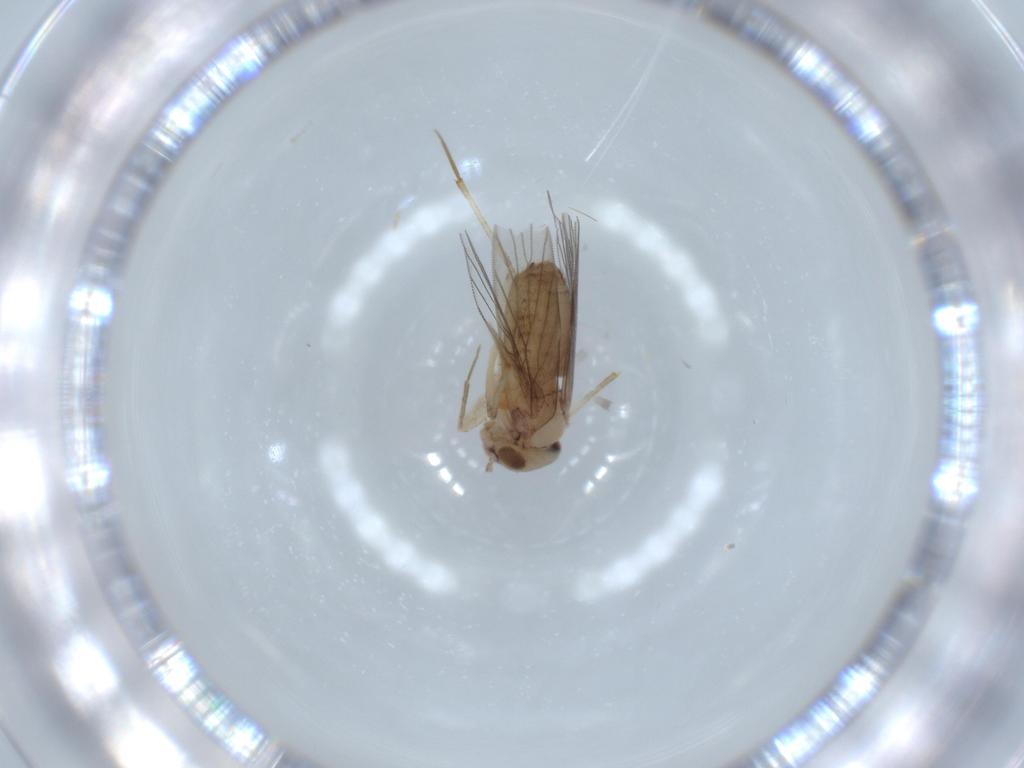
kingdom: Animalia
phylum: Arthropoda
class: Insecta
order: Psocodea
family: Lepidopsocidae
